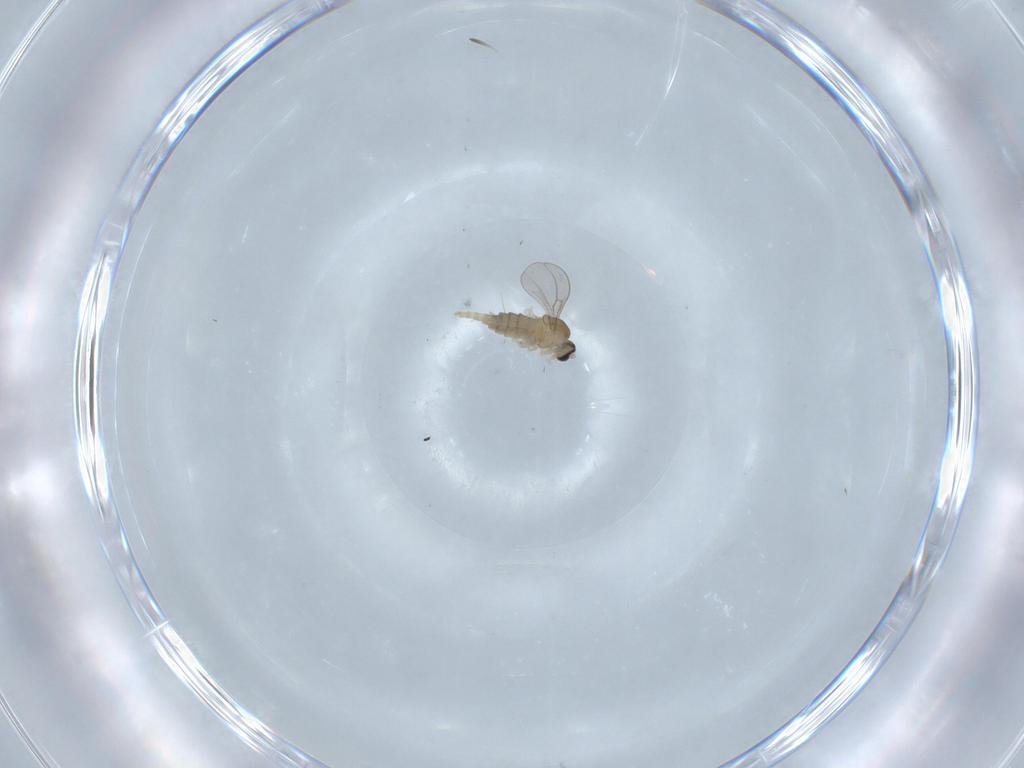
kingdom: Animalia
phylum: Arthropoda
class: Insecta
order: Diptera
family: Cecidomyiidae
